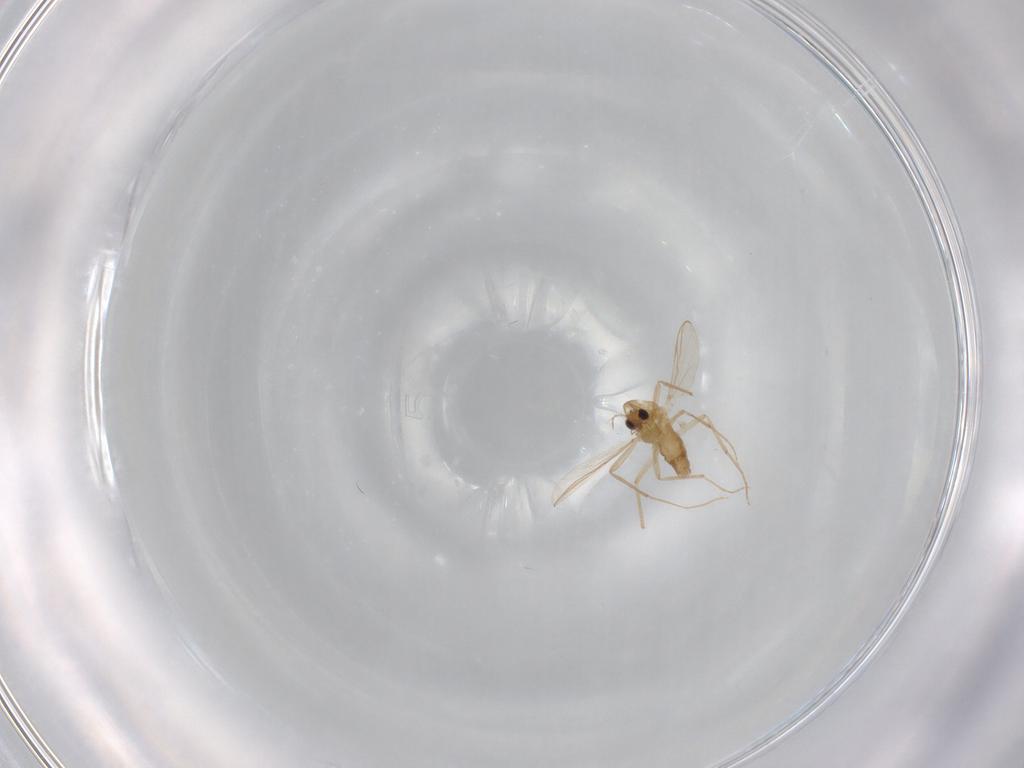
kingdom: Animalia
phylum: Arthropoda
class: Insecta
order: Diptera
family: Chironomidae
